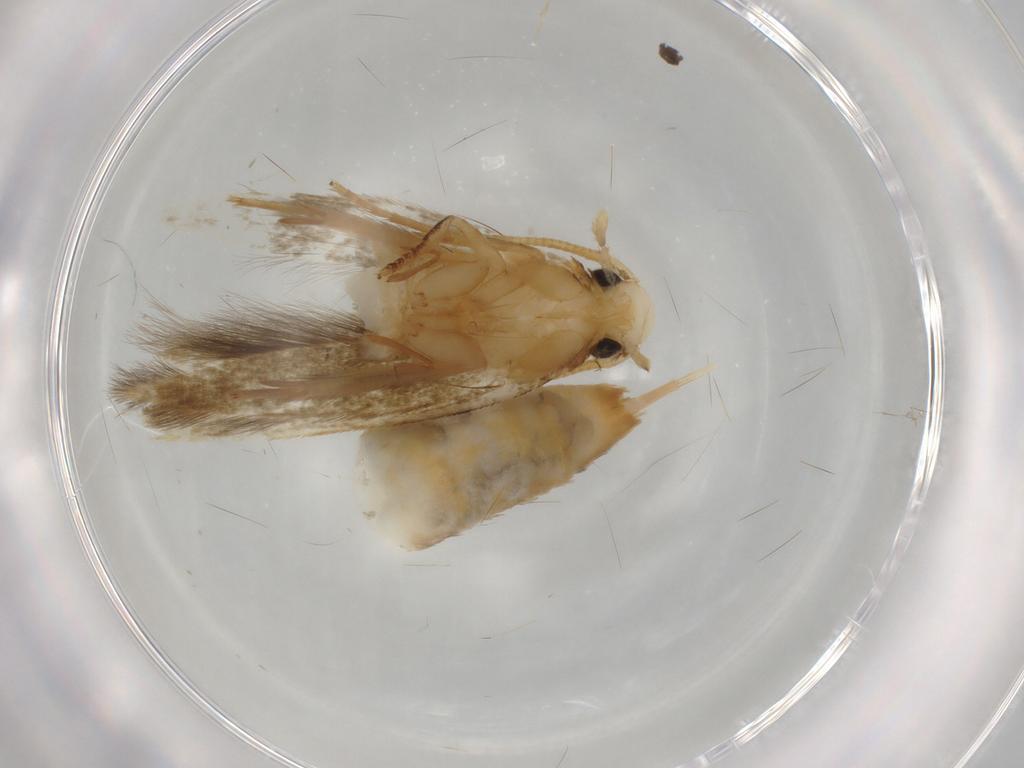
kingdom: Animalia
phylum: Arthropoda
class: Insecta
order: Lepidoptera
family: Tineidae
